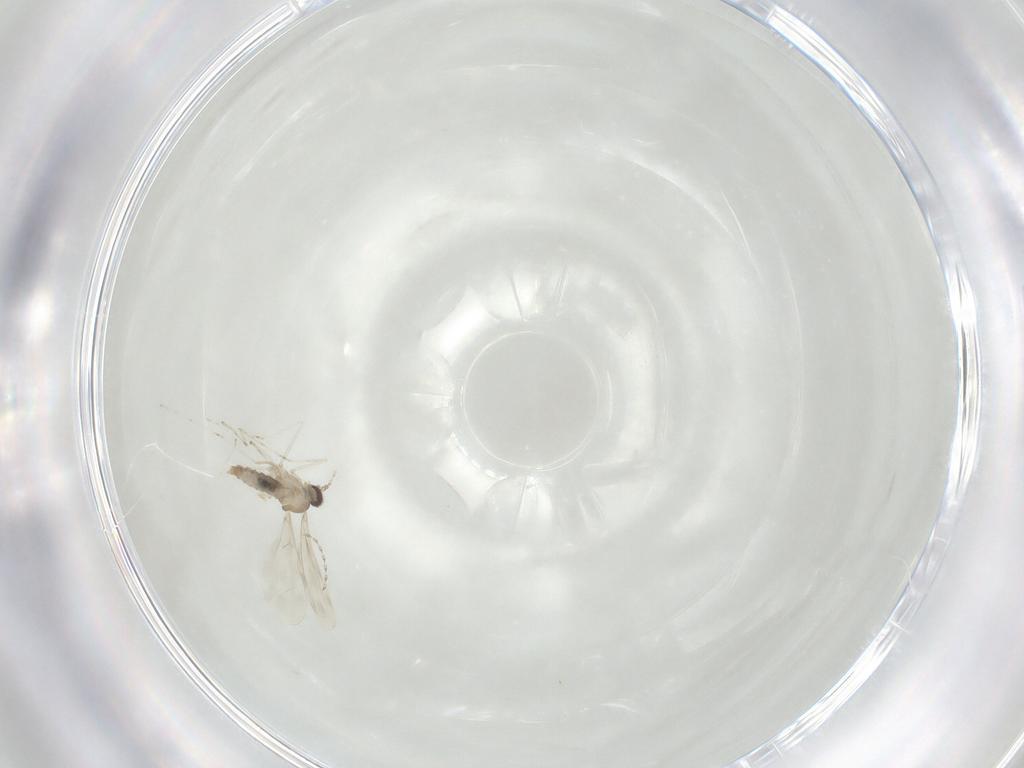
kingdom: Animalia
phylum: Arthropoda
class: Insecta
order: Diptera
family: Cecidomyiidae
